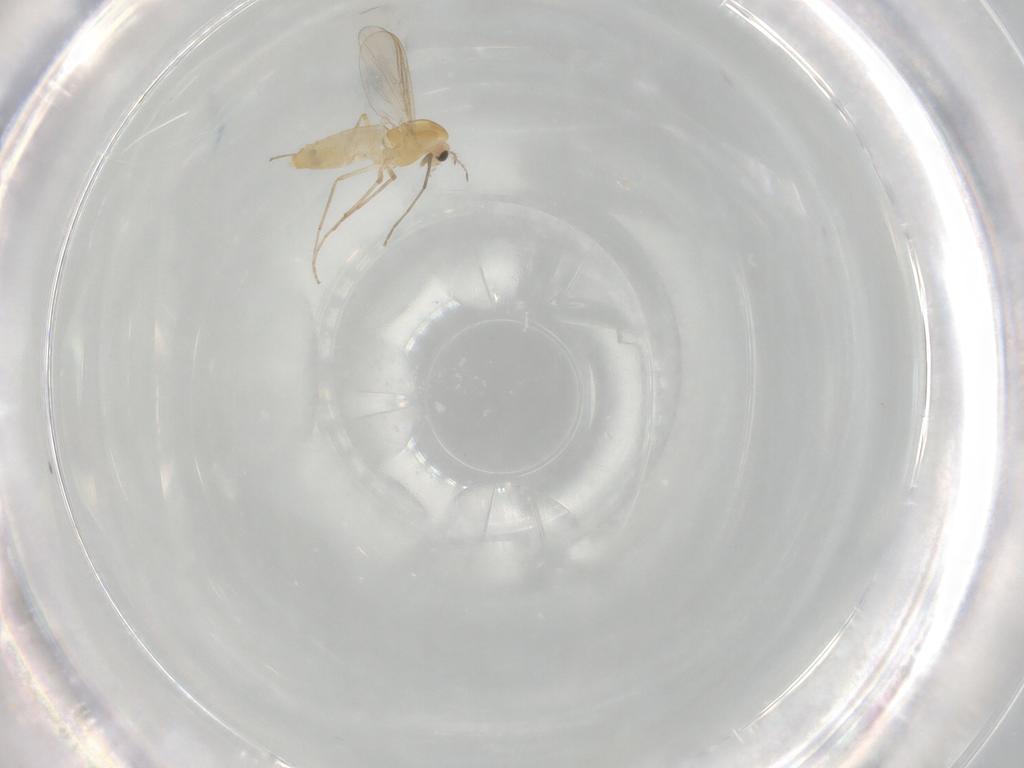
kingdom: Animalia
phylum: Arthropoda
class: Insecta
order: Diptera
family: Chironomidae
